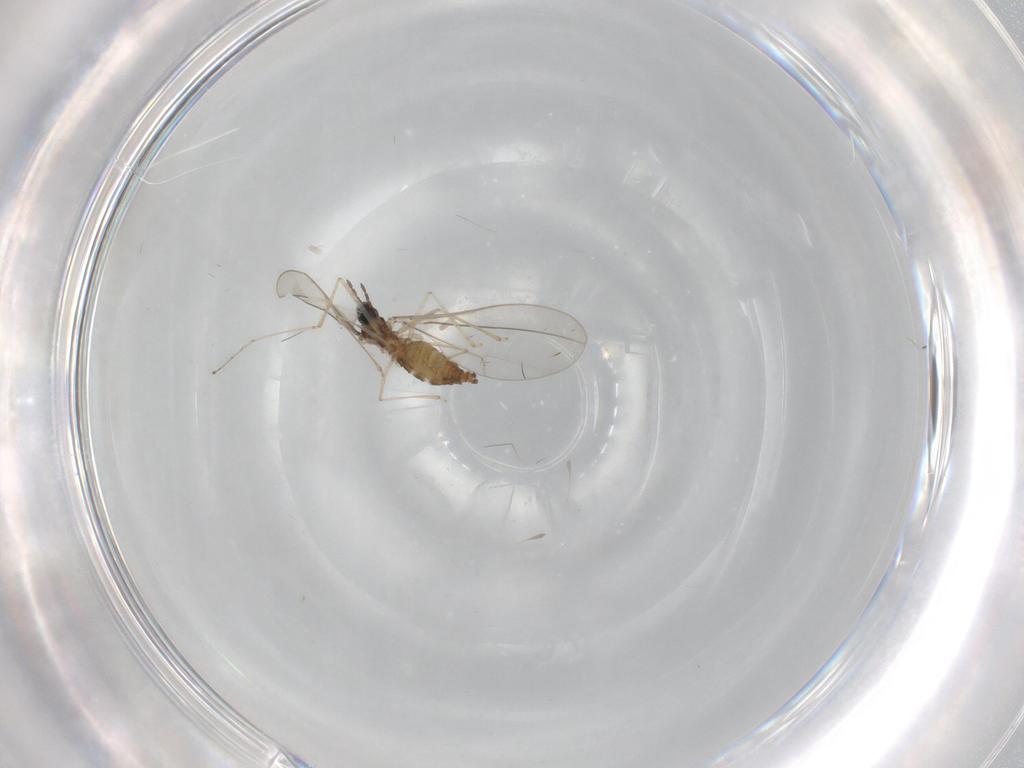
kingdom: Animalia
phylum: Arthropoda
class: Insecta
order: Diptera
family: Cecidomyiidae
